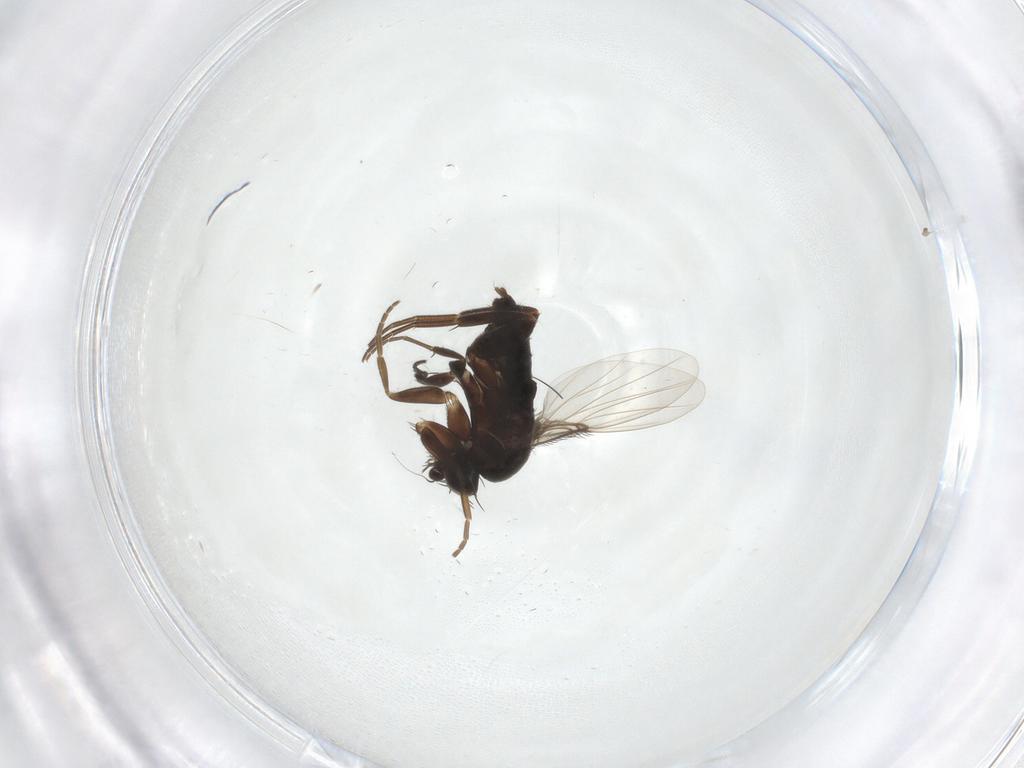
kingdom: Animalia
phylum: Arthropoda
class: Insecta
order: Diptera
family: Phoridae
